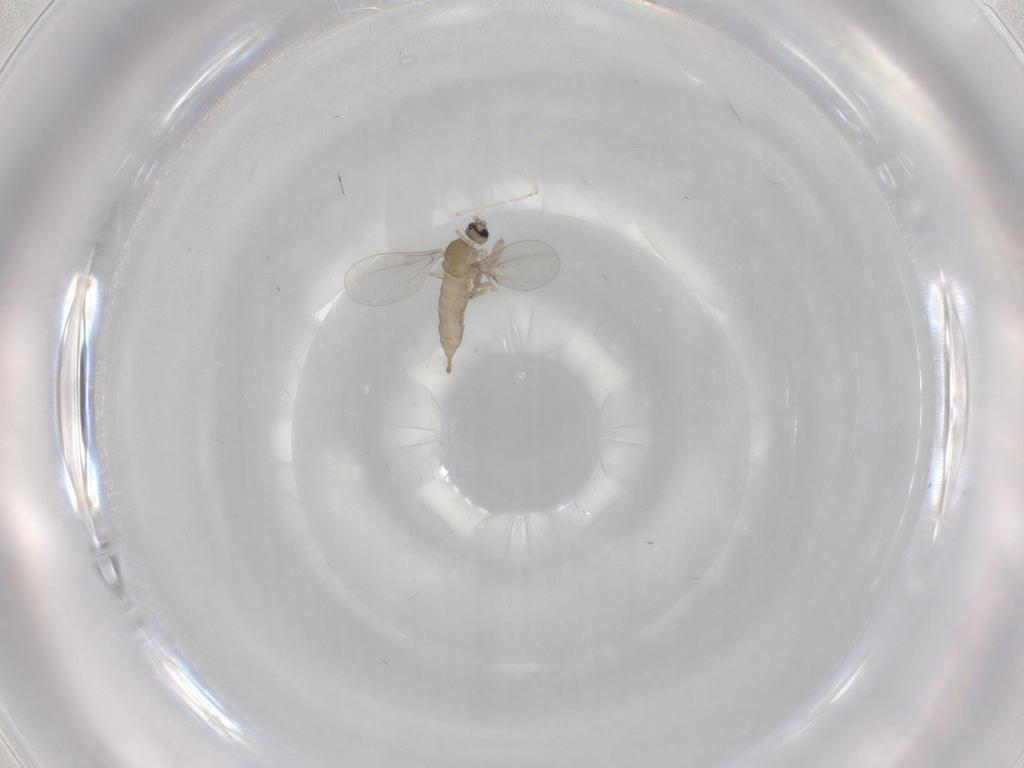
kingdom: Animalia
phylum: Arthropoda
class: Insecta
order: Diptera
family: Cecidomyiidae
